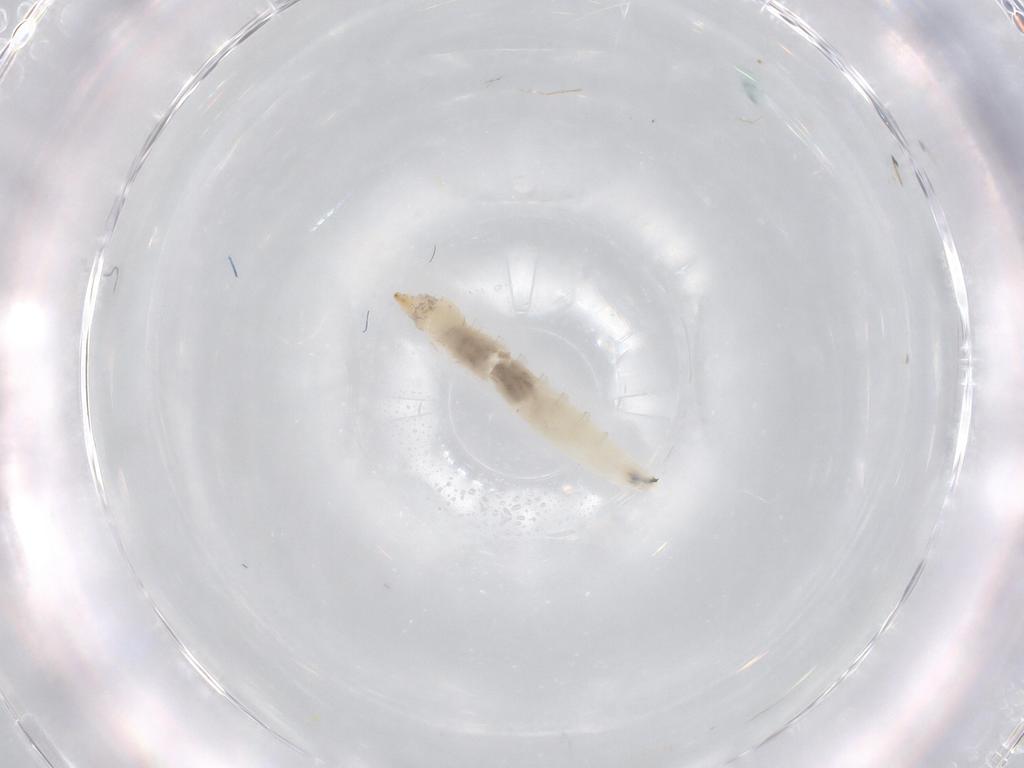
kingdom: Animalia
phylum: Arthropoda
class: Insecta
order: Diptera
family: Drosophilidae
